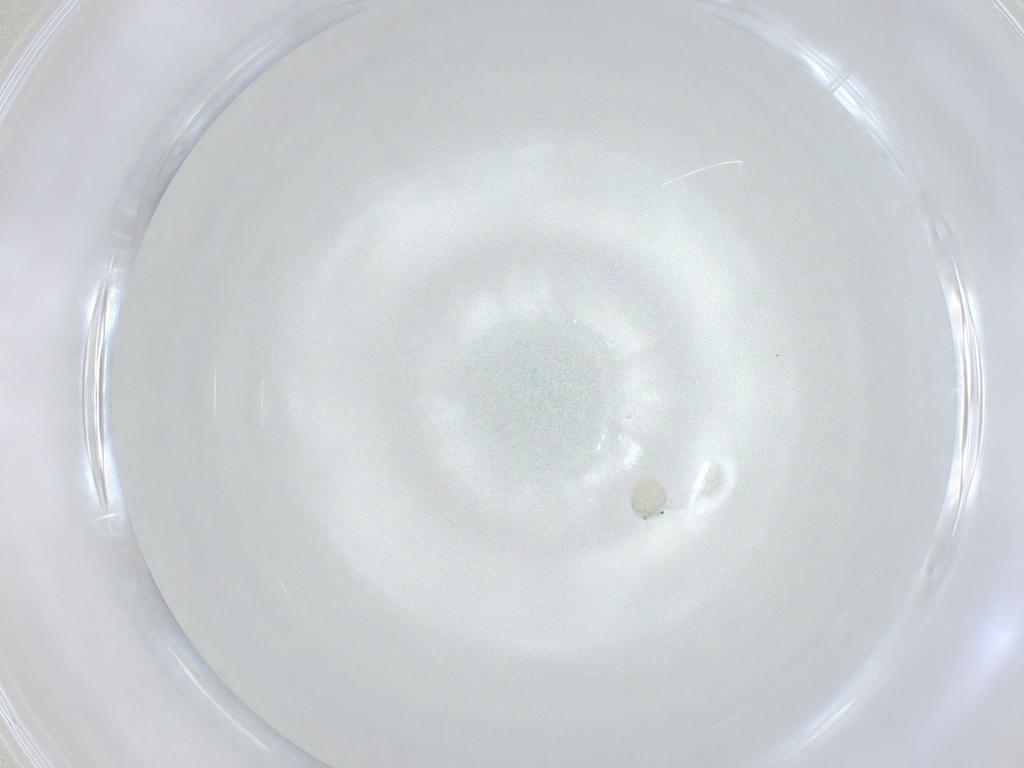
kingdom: Animalia
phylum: Arthropoda
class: Arachnida
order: Trombidiformes
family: Arrenuridae
